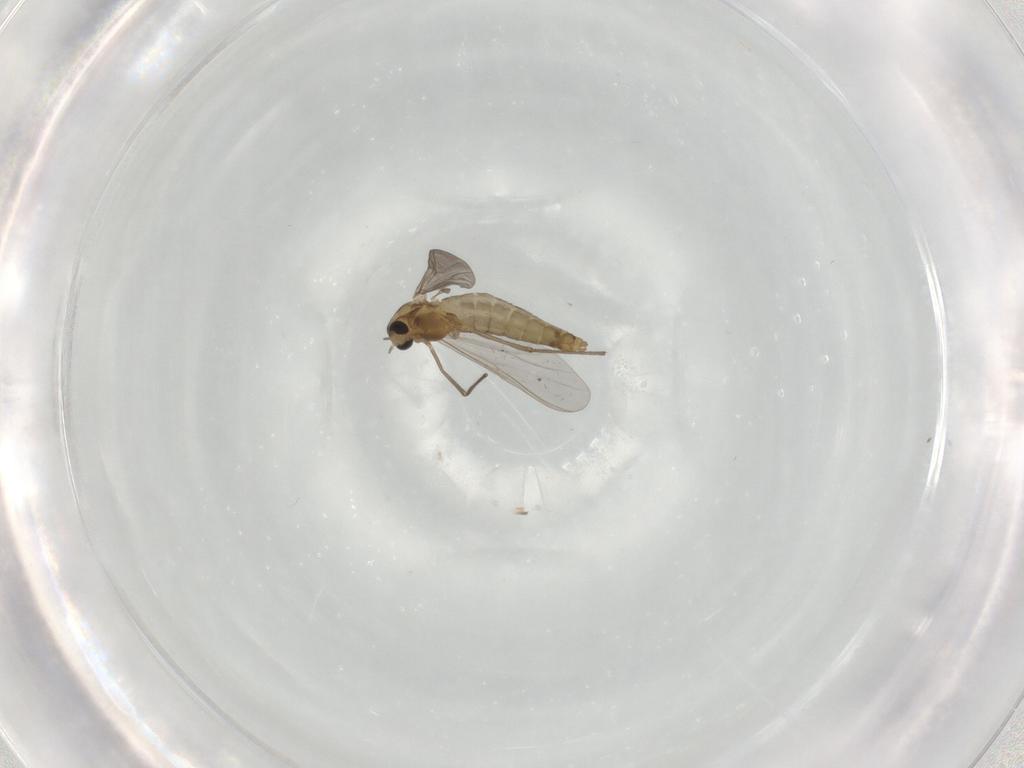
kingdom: Animalia
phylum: Arthropoda
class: Insecta
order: Diptera
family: Chironomidae
